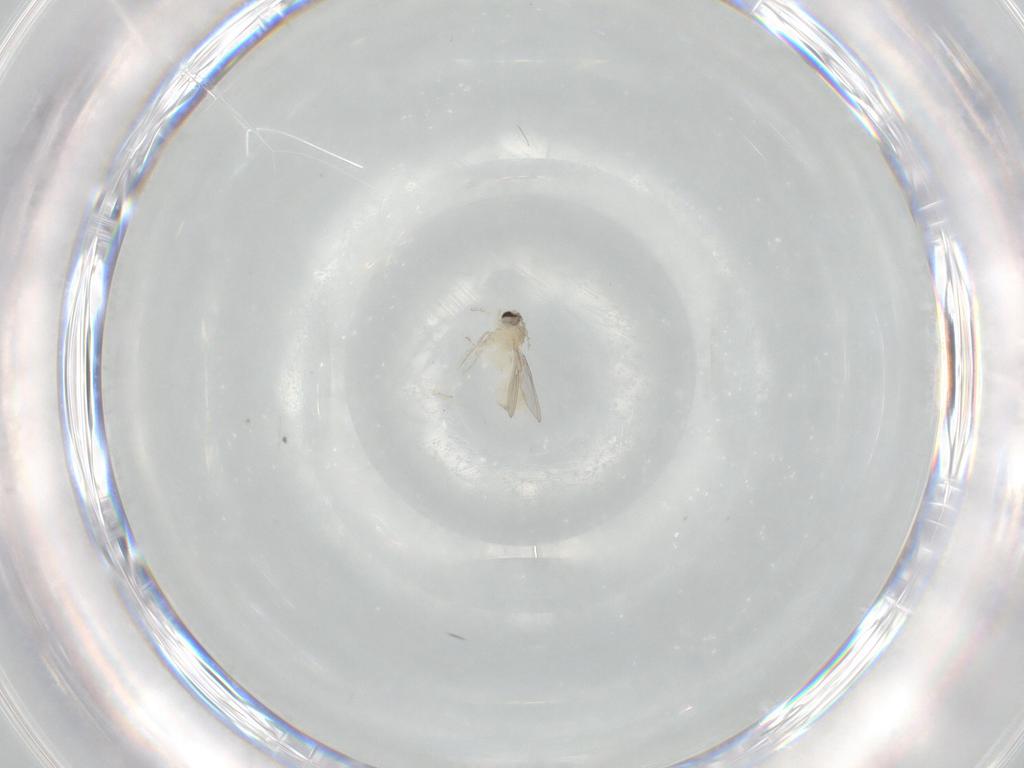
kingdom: Animalia
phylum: Arthropoda
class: Insecta
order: Diptera
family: Cecidomyiidae
